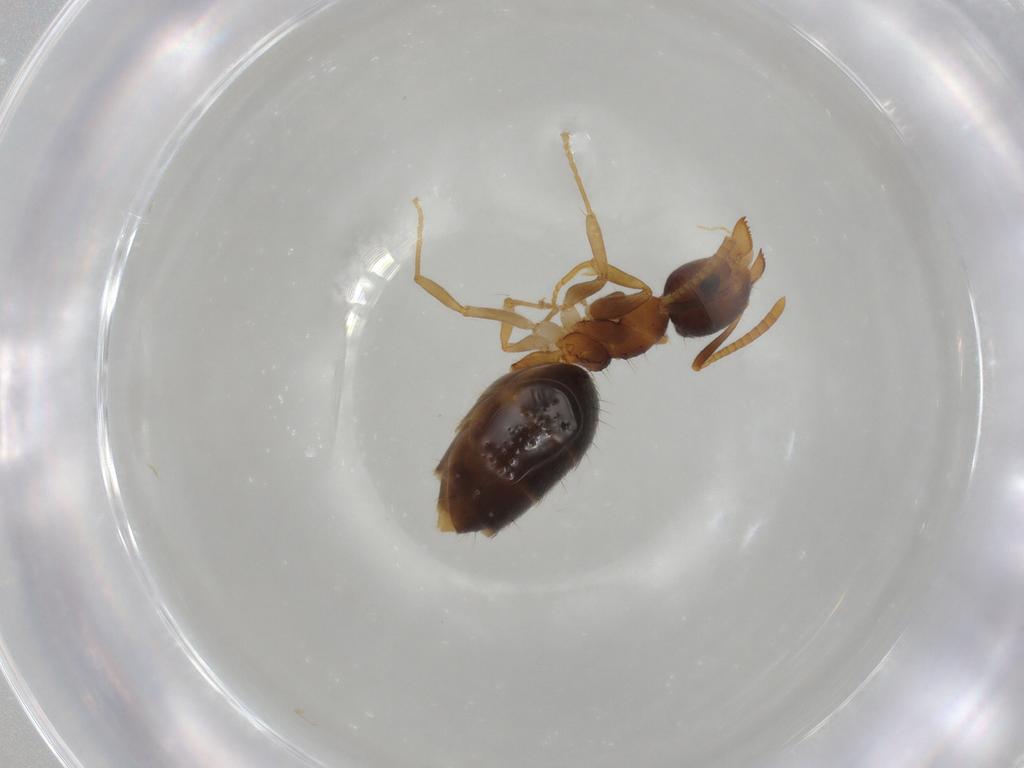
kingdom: Animalia
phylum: Arthropoda
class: Insecta
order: Hymenoptera
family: Formicidae
